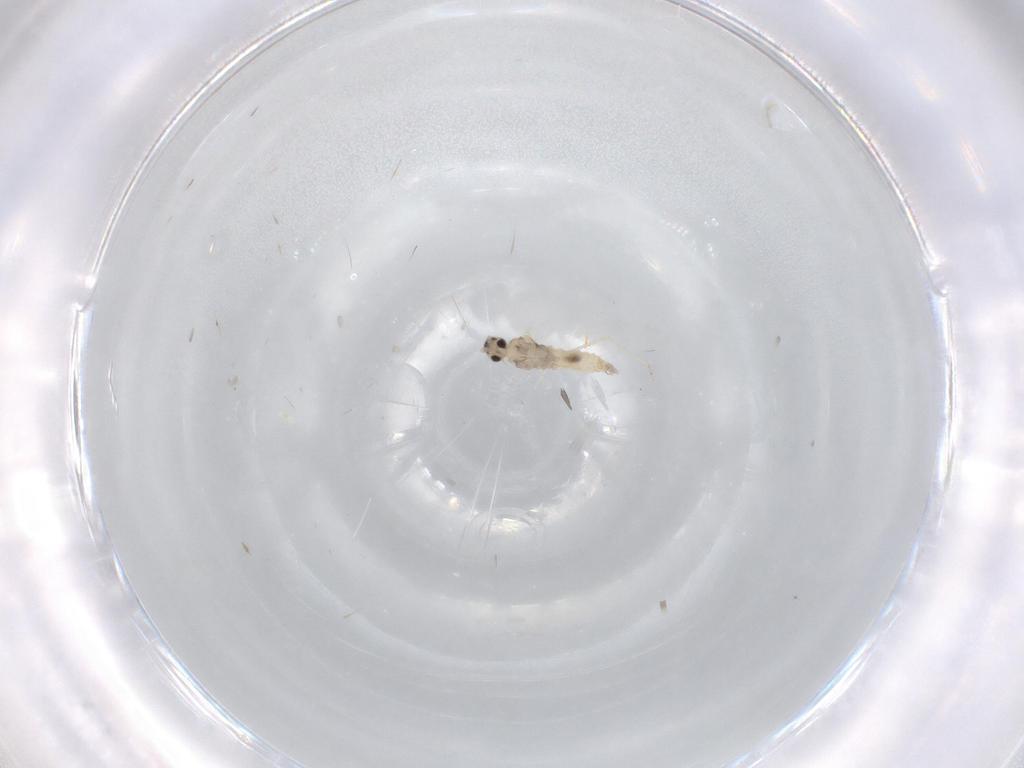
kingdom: Animalia
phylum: Arthropoda
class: Insecta
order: Diptera
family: Cecidomyiidae
